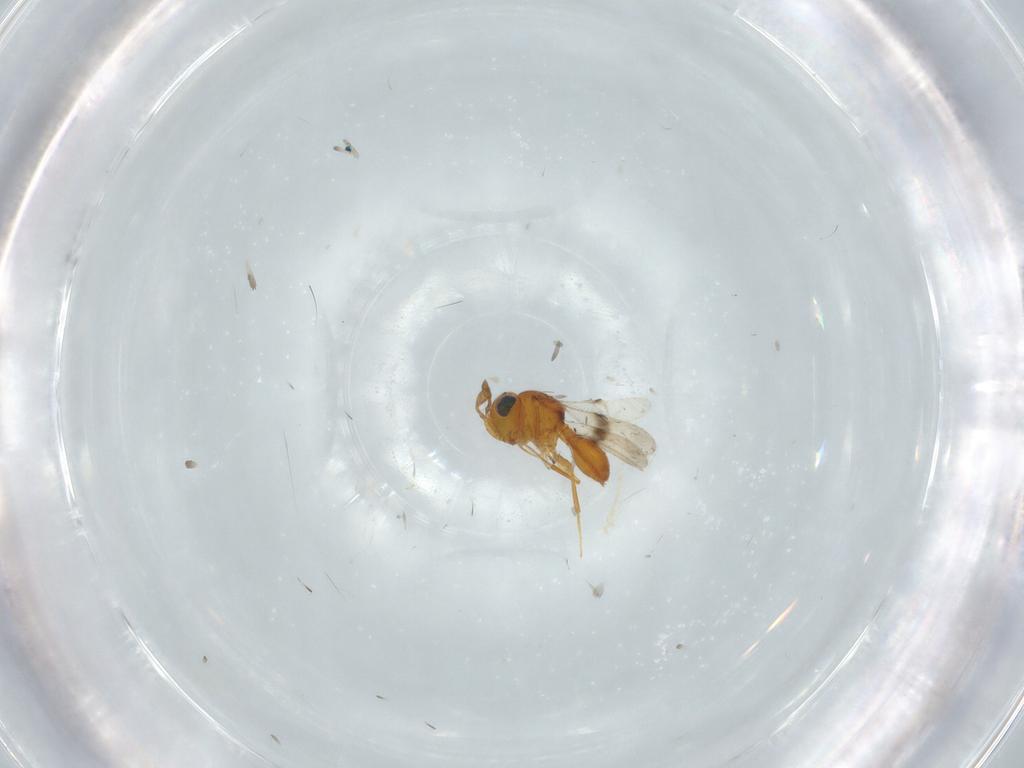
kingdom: Animalia
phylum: Arthropoda
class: Insecta
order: Hymenoptera
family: Scelionidae
